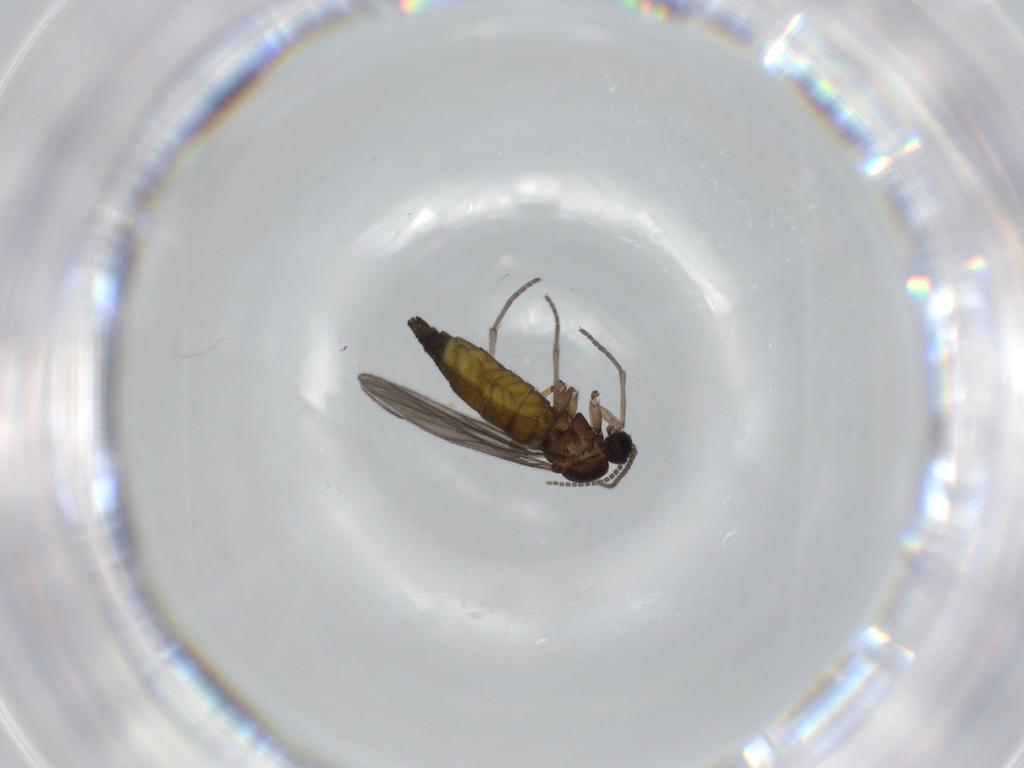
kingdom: Animalia
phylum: Arthropoda
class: Insecta
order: Diptera
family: Sciaridae
